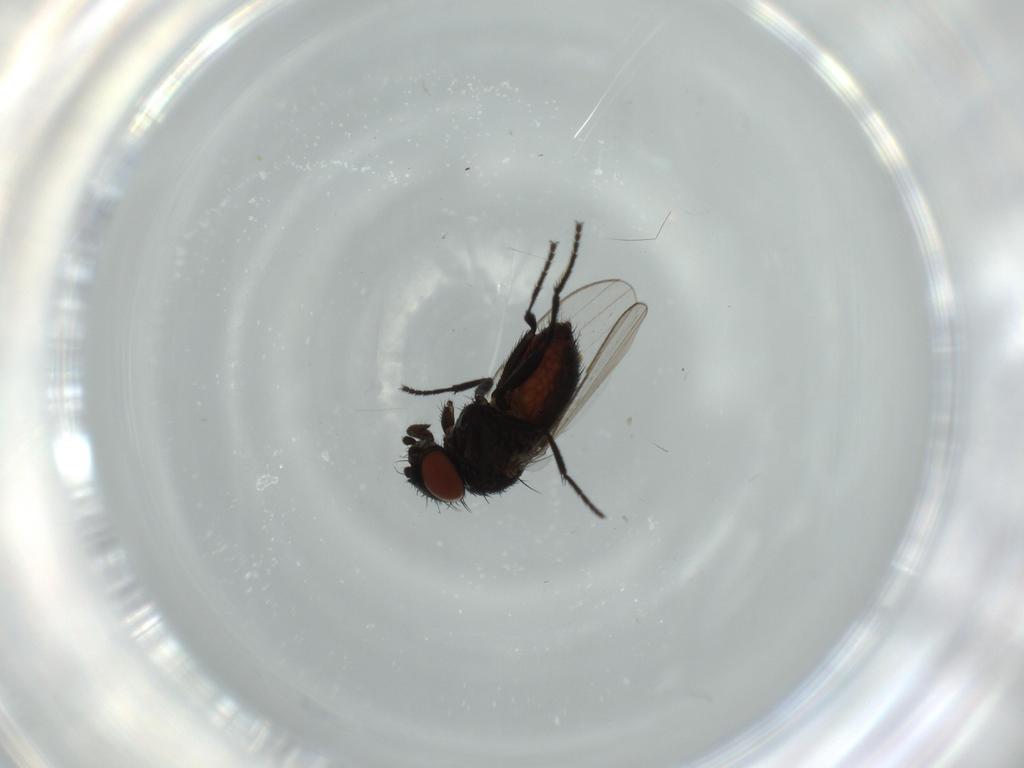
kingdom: Animalia
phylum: Arthropoda
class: Insecta
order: Diptera
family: Milichiidae
